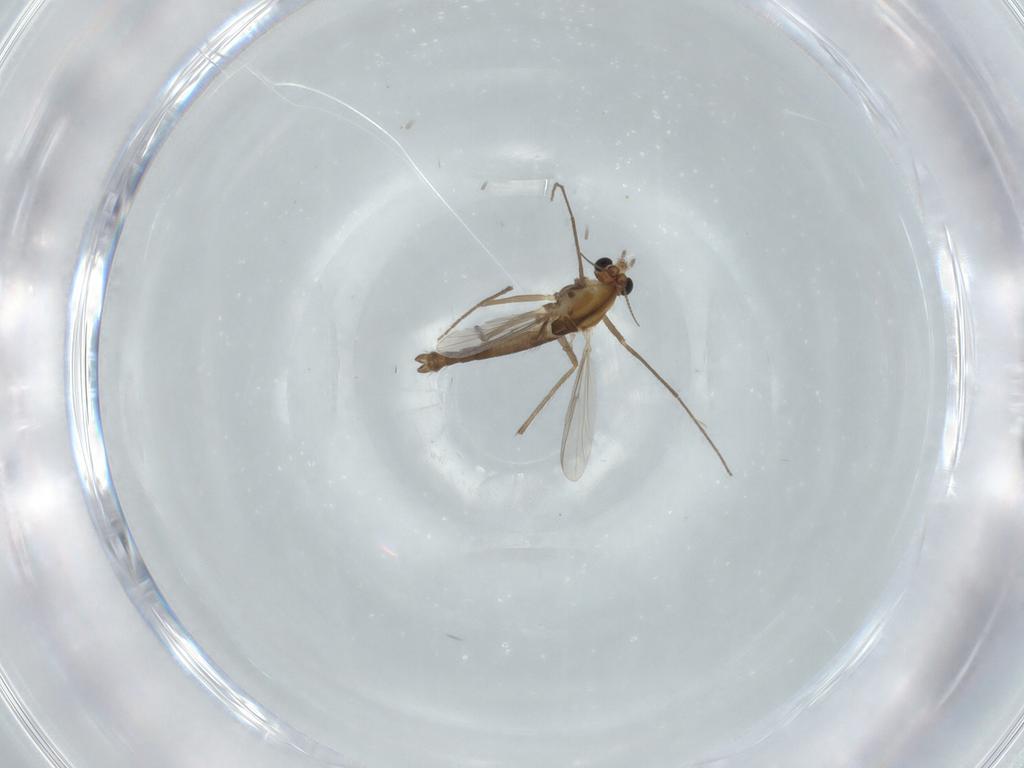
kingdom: Animalia
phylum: Arthropoda
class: Insecta
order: Diptera
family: Chironomidae
